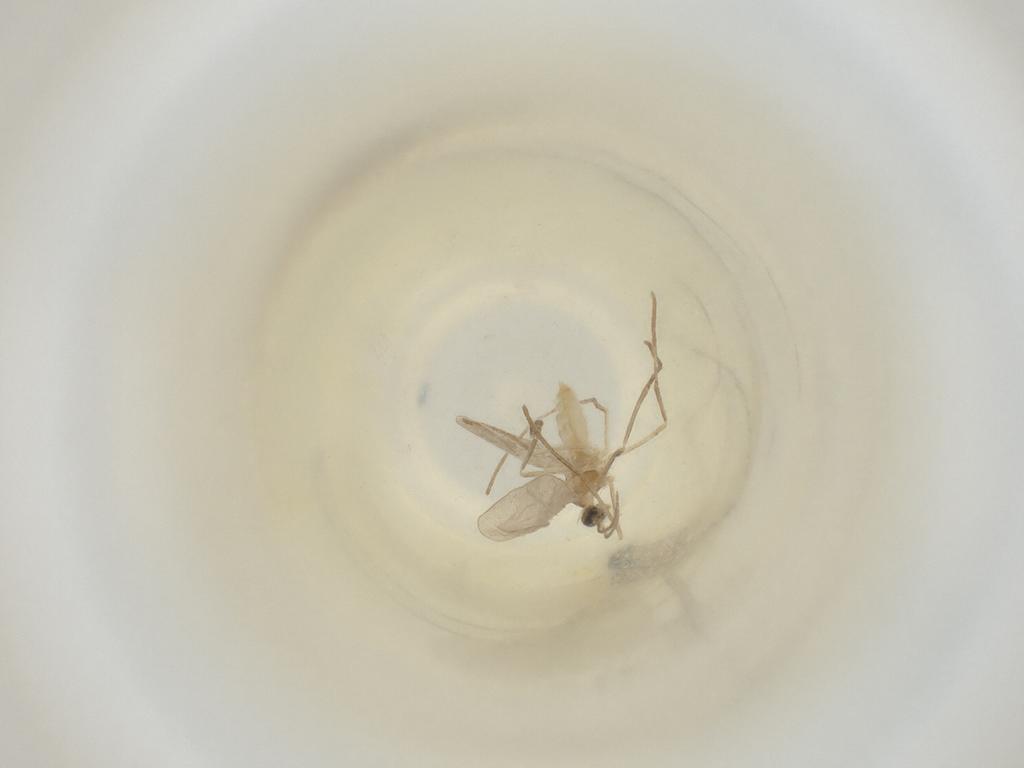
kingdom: Animalia
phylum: Arthropoda
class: Insecta
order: Diptera
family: Cecidomyiidae
